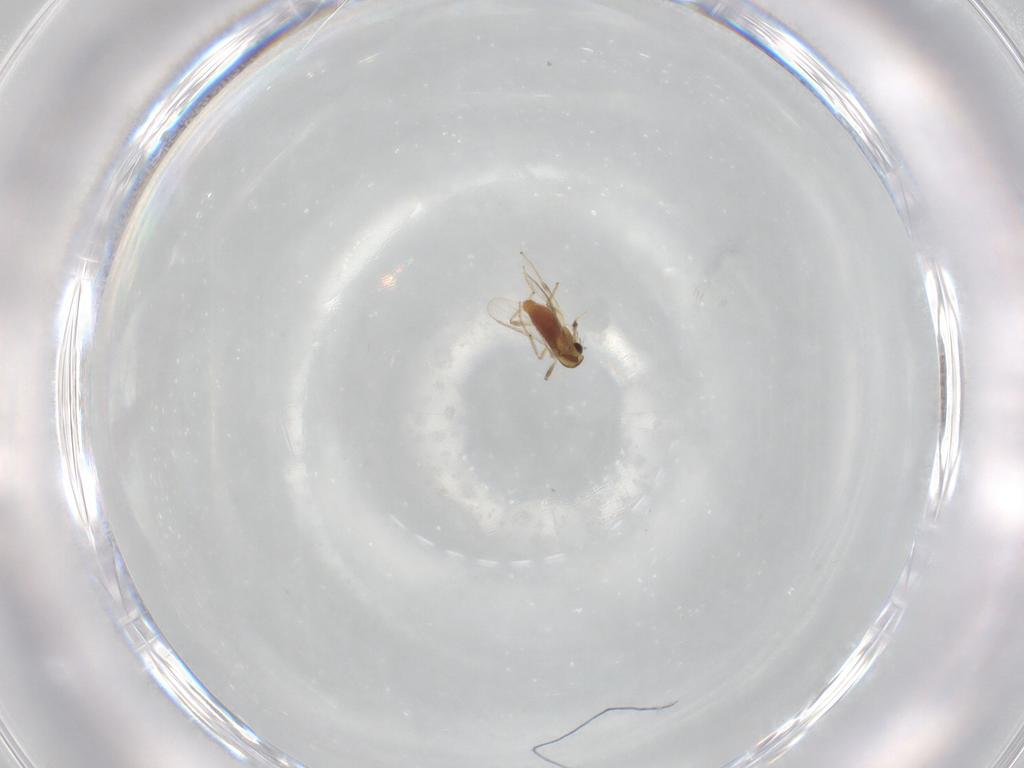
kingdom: Animalia
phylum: Arthropoda
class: Insecta
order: Diptera
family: Chironomidae
